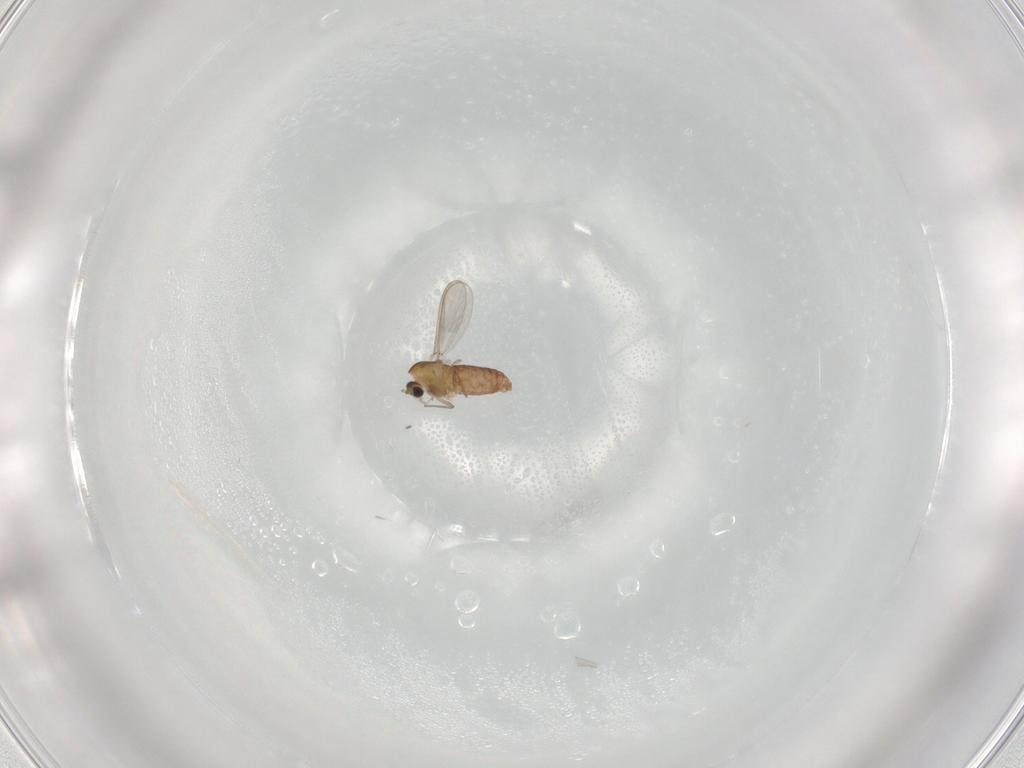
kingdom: Animalia
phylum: Arthropoda
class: Insecta
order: Diptera
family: Chironomidae
